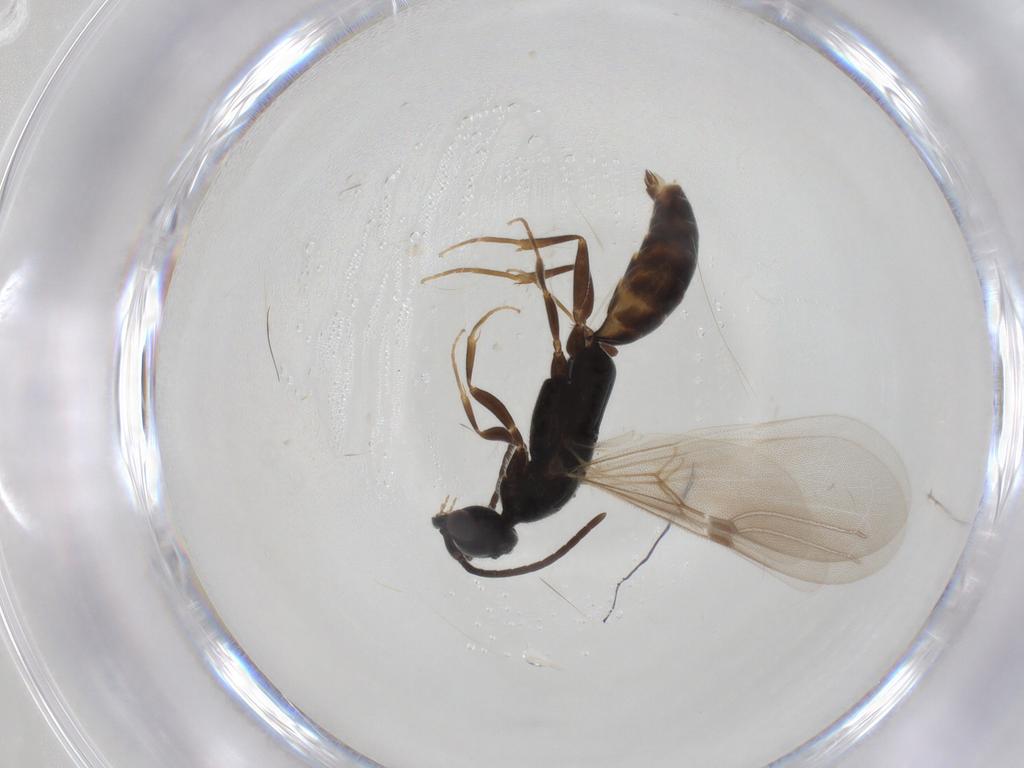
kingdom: Animalia
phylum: Arthropoda
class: Insecta
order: Hymenoptera
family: Bethylidae
